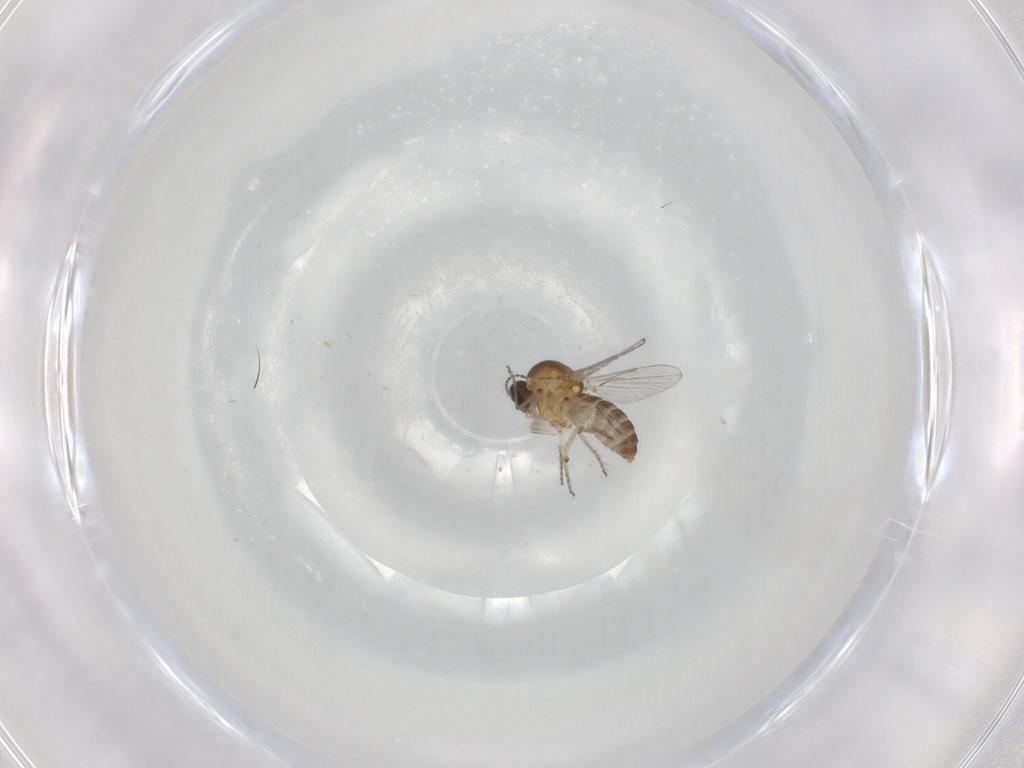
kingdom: Animalia
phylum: Arthropoda
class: Insecta
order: Diptera
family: Ceratopogonidae
